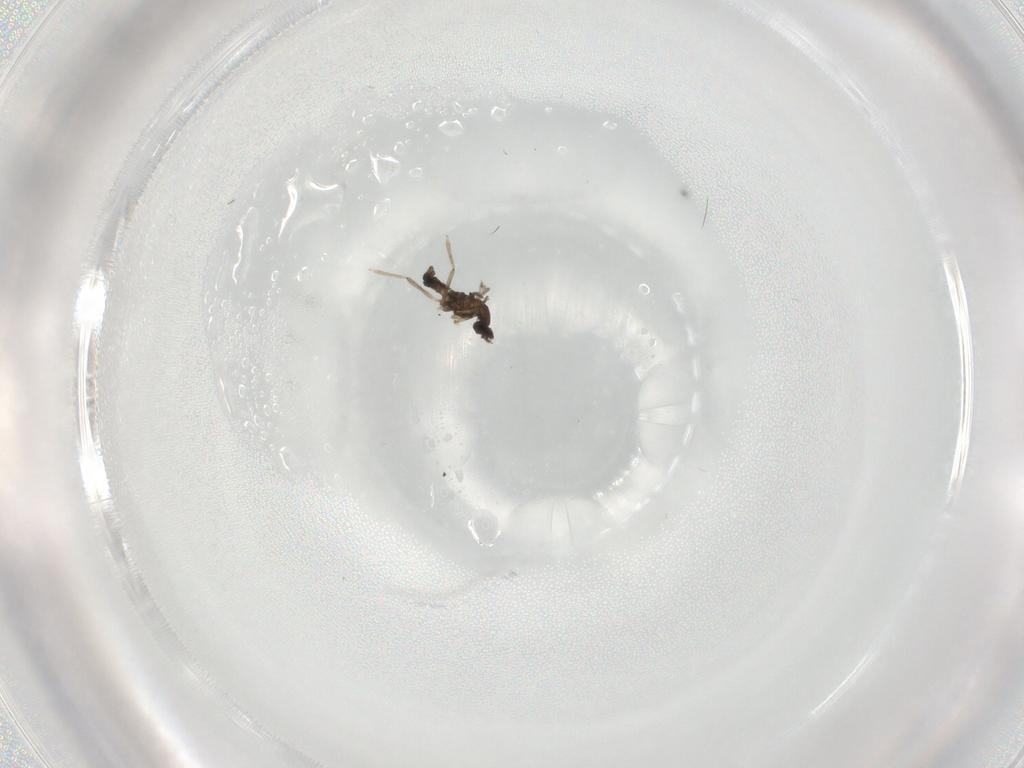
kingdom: Animalia
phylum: Arthropoda
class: Insecta
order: Diptera
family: Cecidomyiidae
